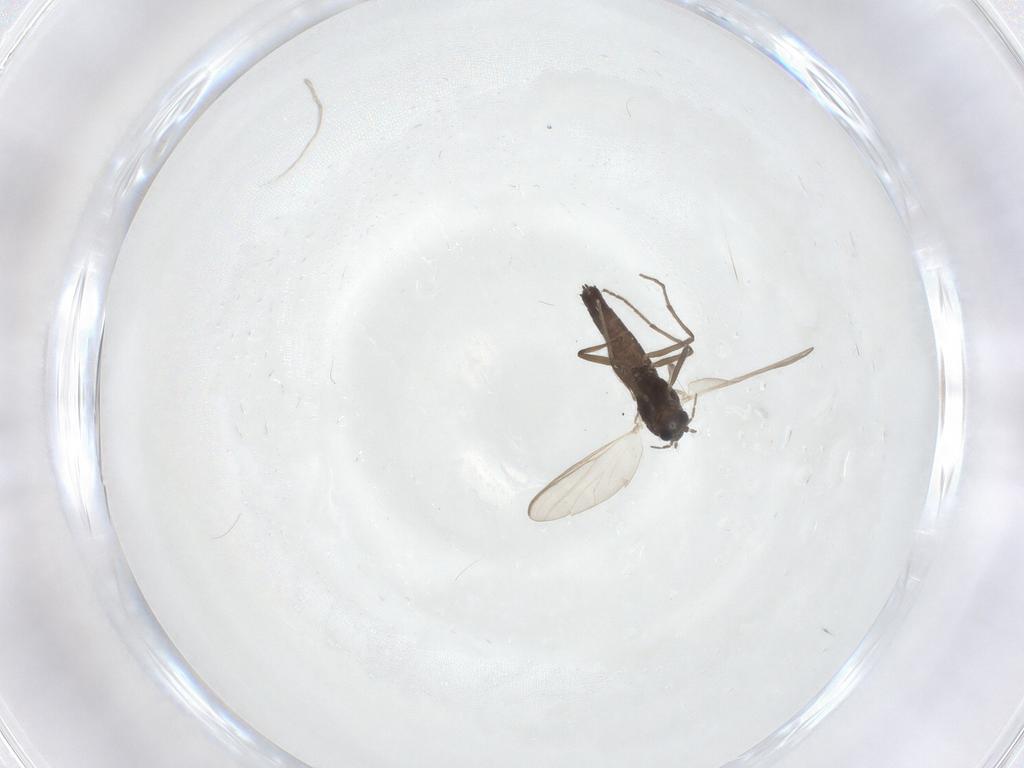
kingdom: Animalia
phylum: Arthropoda
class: Insecta
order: Diptera
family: Chironomidae
